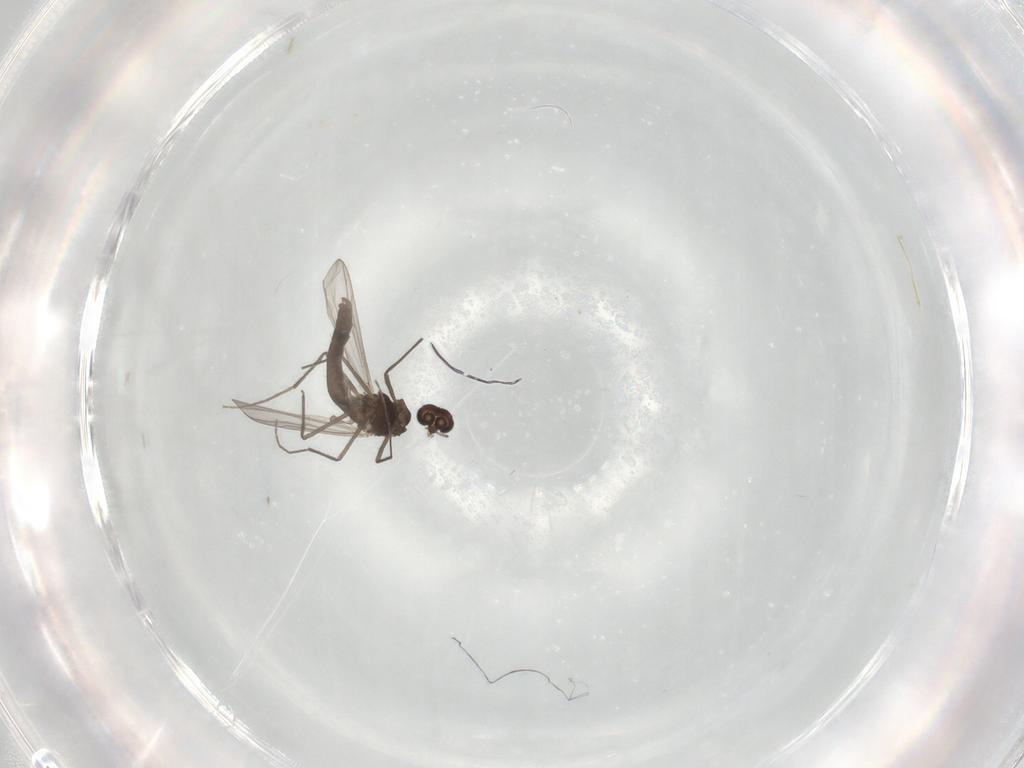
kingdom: Animalia
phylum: Arthropoda
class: Insecta
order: Diptera
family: Chironomidae
